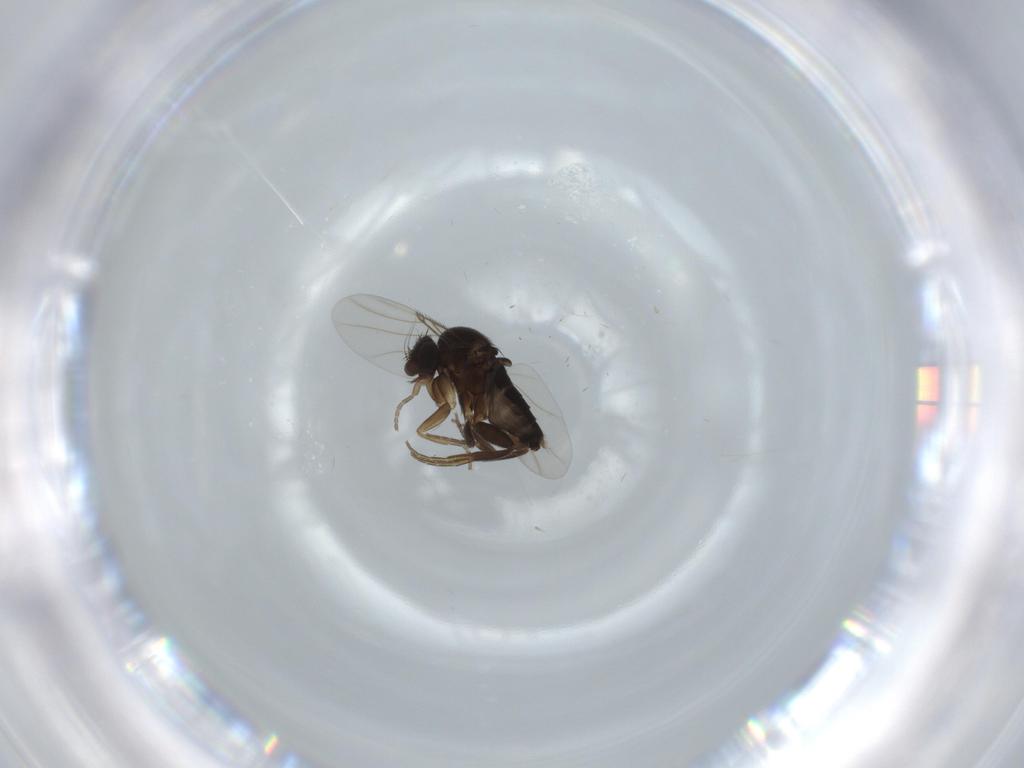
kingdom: Animalia
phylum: Arthropoda
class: Insecta
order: Diptera
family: Phoridae
